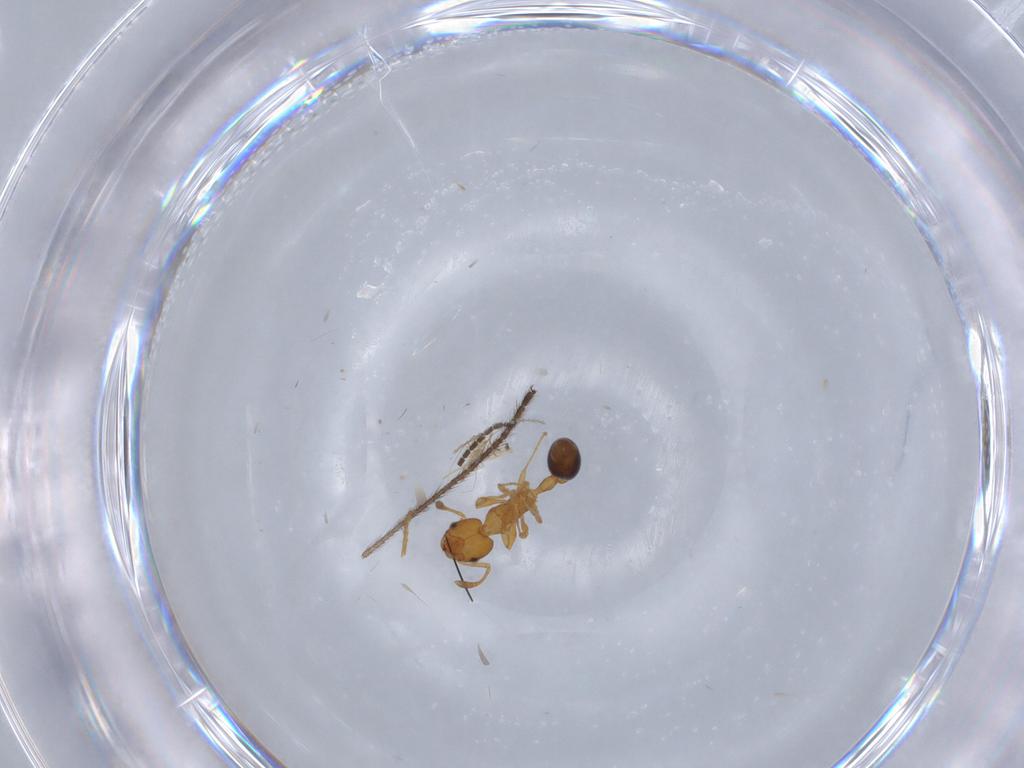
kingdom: Animalia
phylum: Arthropoda
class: Insecta
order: Hymenoptera
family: Formicidae
